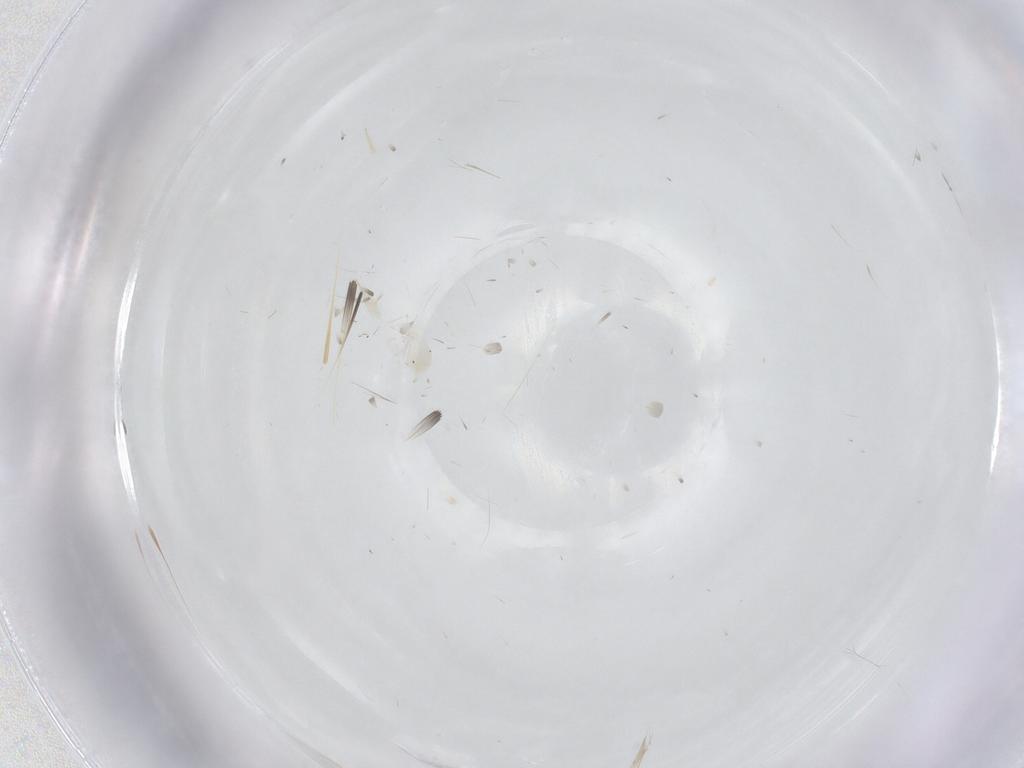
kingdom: Animalia
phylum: Arthropoda
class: Arachnida
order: Trombidiformes
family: Anystidae
